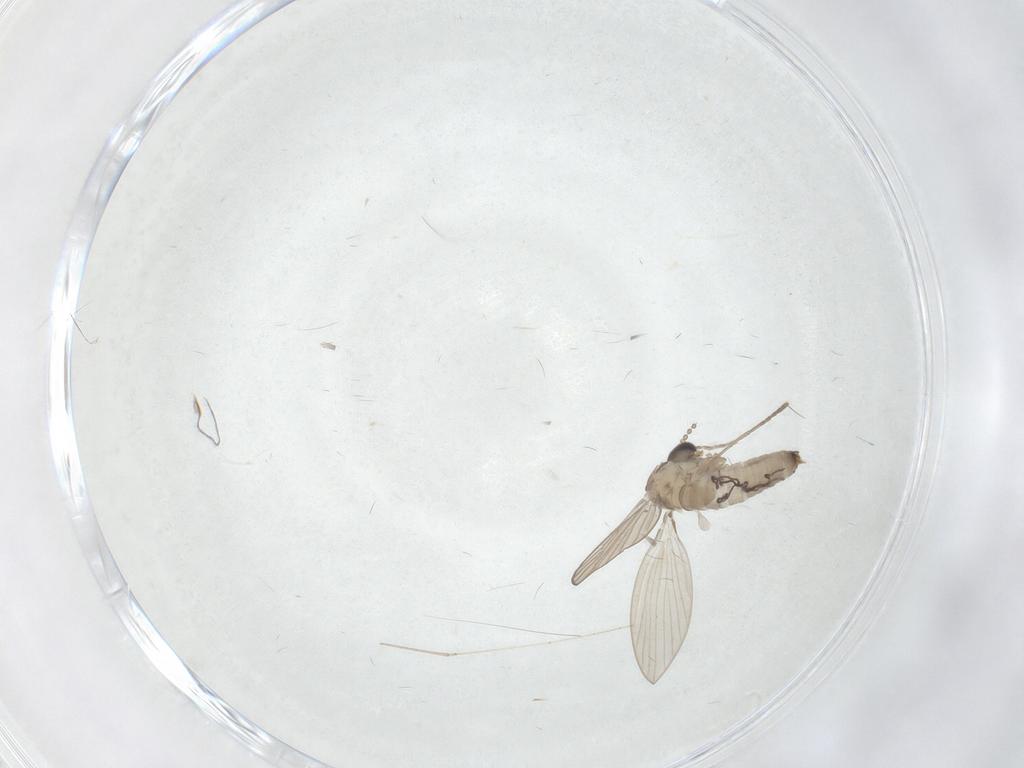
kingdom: Animalia
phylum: Arthropoda
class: Insecta
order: Diptera
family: Psychodidae
